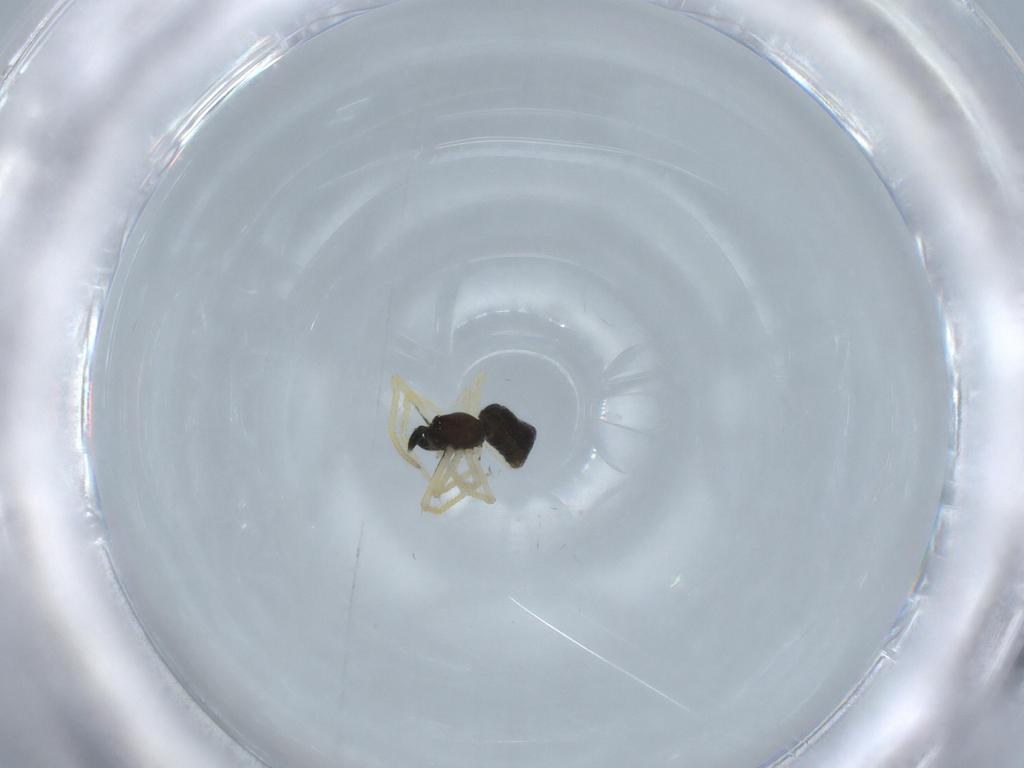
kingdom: Animalia
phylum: Arthropoda
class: Arachnida
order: Araneae
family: Theridiidae
